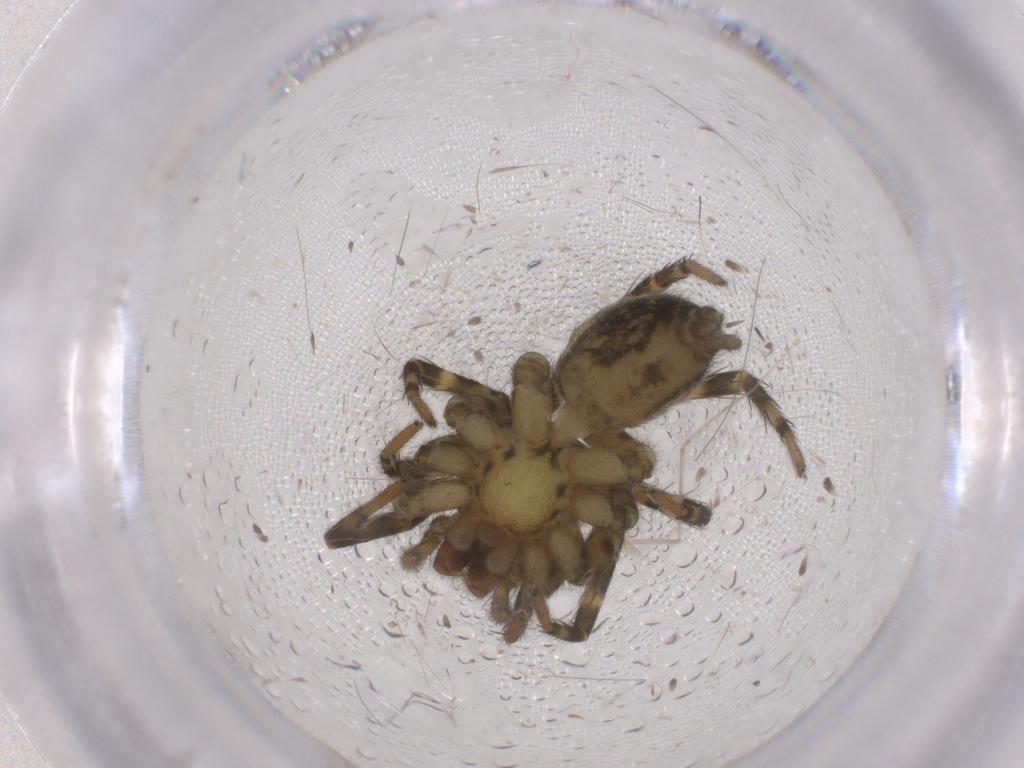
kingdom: Animalia
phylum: Arthropoda
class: Arachnida
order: Araneae
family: Lycosidae
